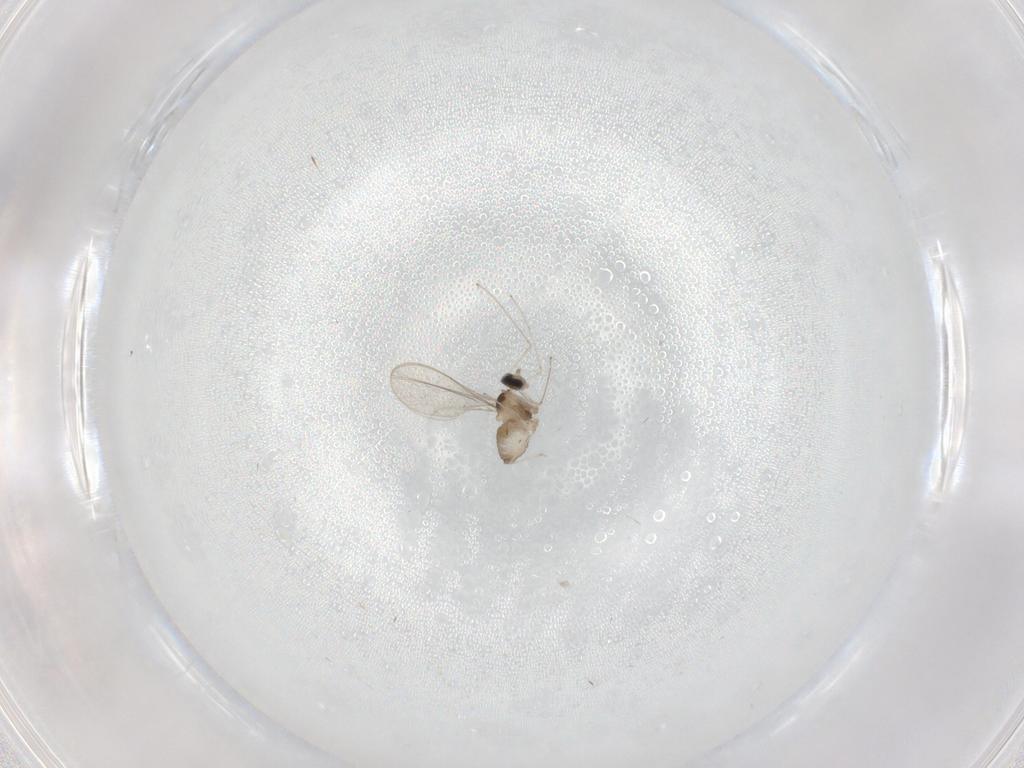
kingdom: Animalia
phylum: Arthropoda
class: Insecta
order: Diptera
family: Cecidomyiidae
